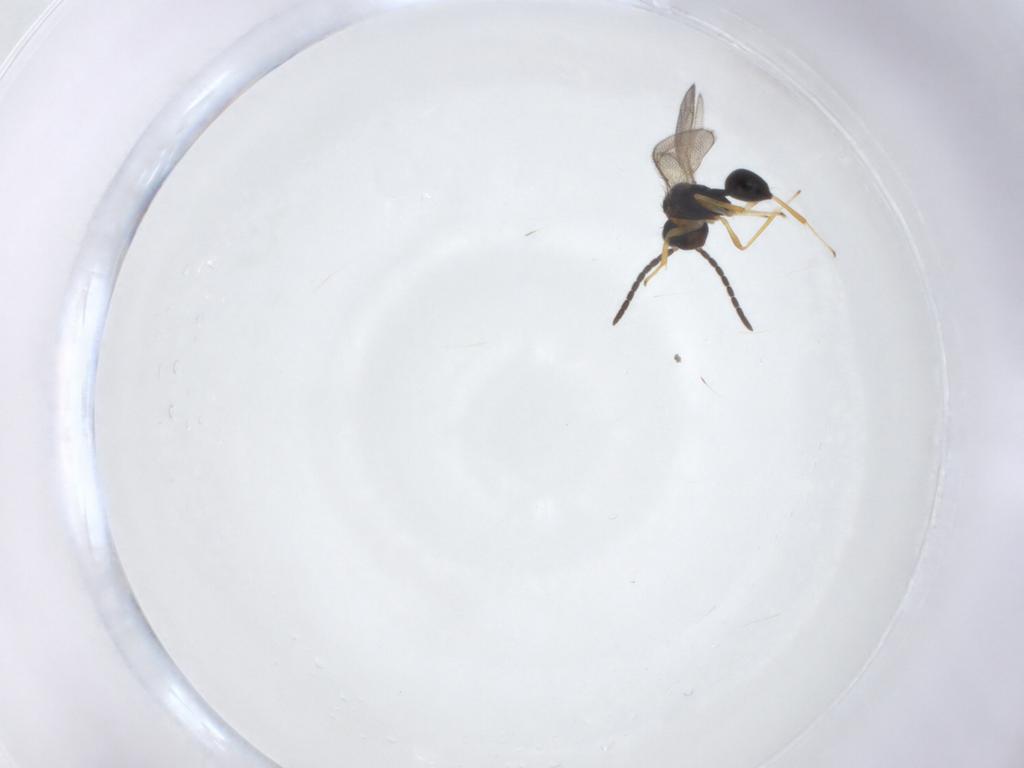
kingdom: Animalia
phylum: Arthropoda
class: Insecta
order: Hymenoptera
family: Diparidae
